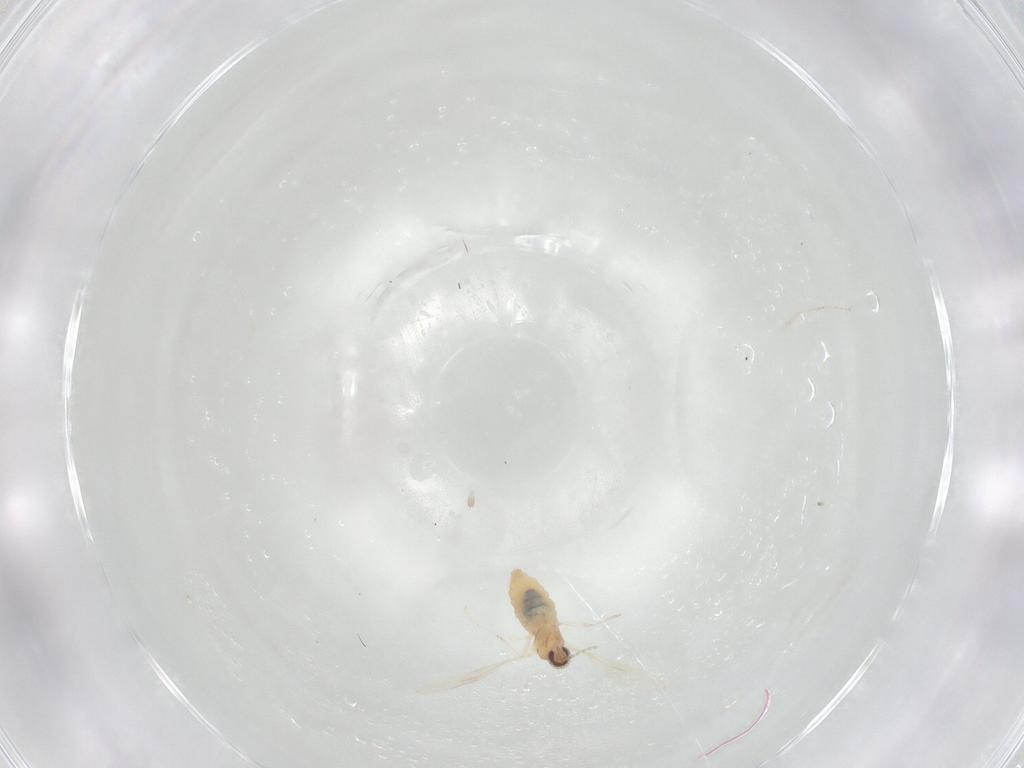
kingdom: Animalia
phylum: Arthropoda
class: Insecta
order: Diptera
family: Cecidomyiidae
